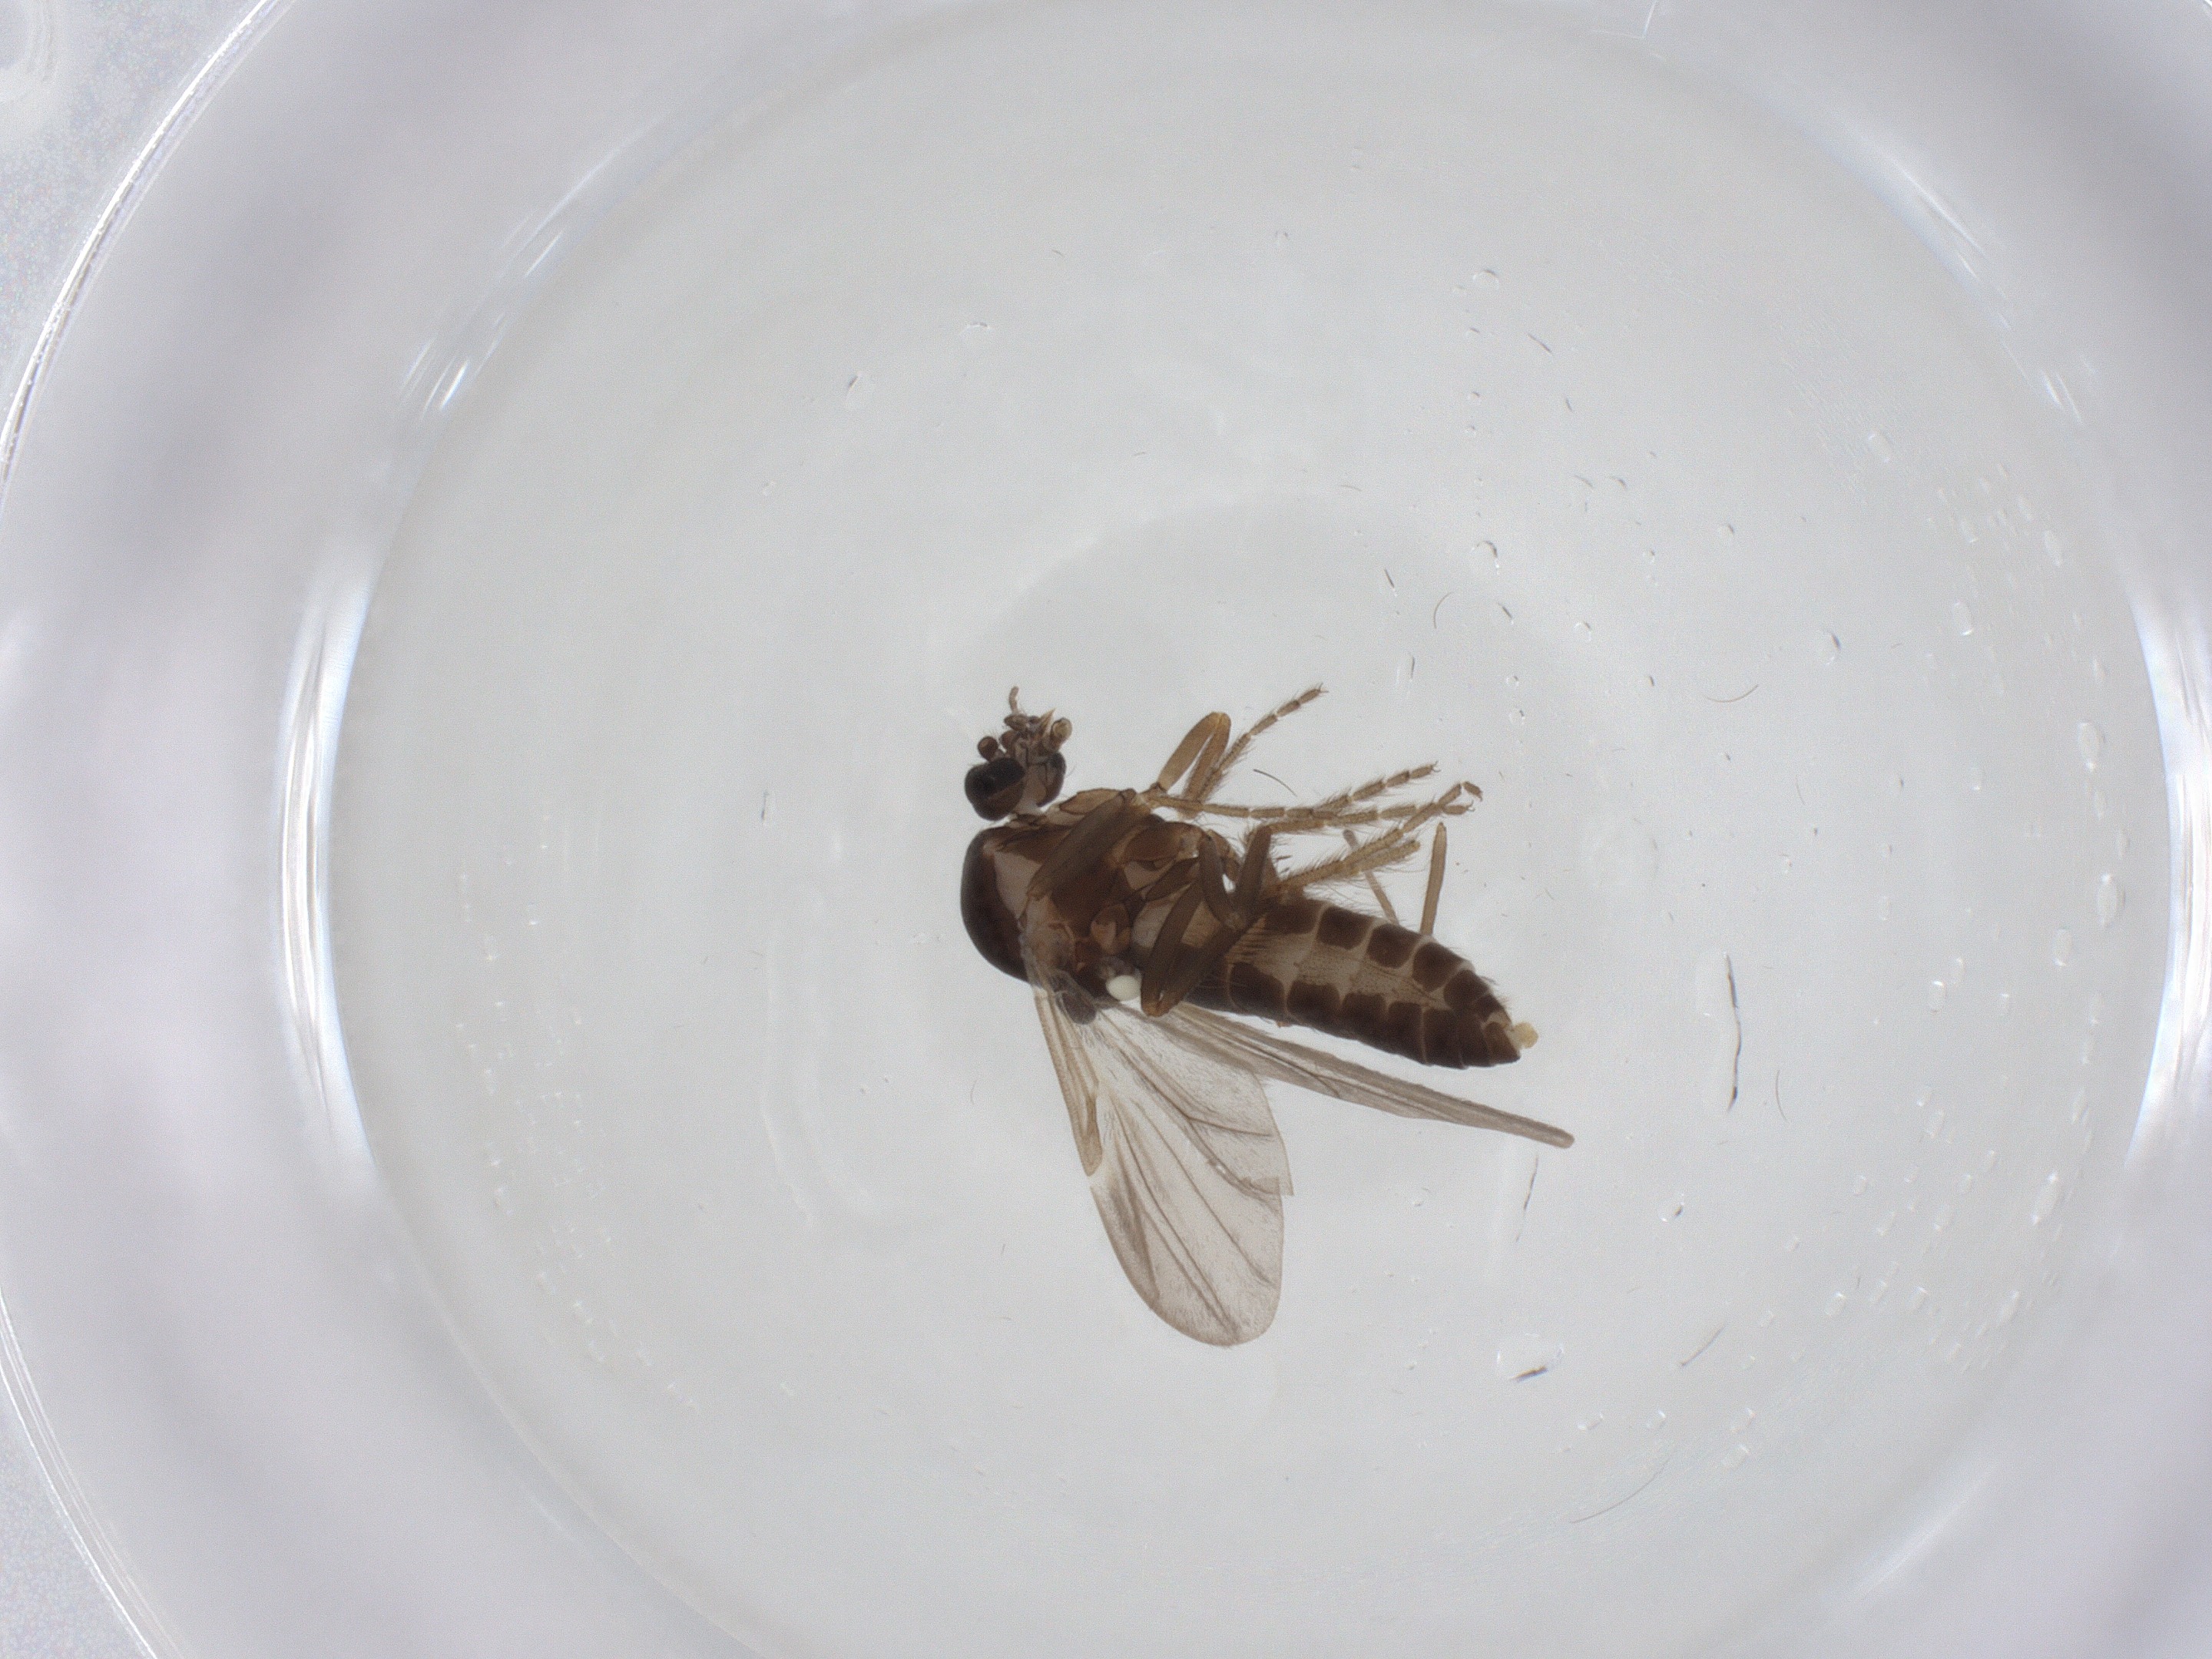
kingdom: Animalia
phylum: Arthropoda
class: Insecta
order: Diptera
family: Ceratopogonidae
